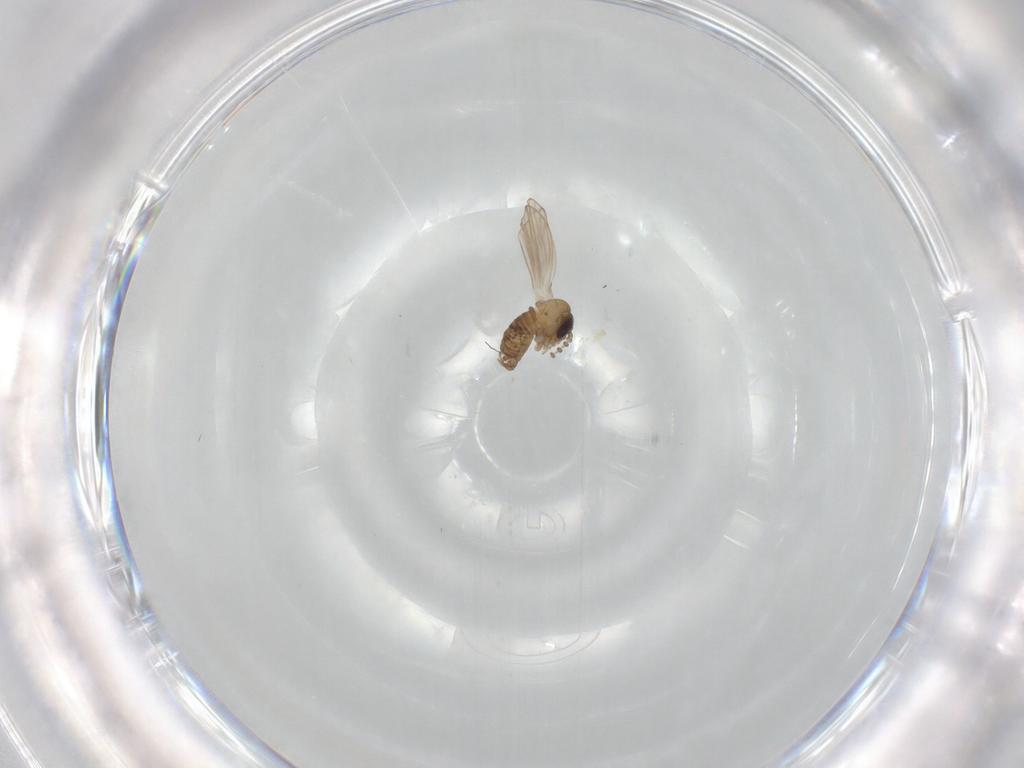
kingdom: Animalia
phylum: Arthropoda
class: Insecta
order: Diptera
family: Psychodidae
